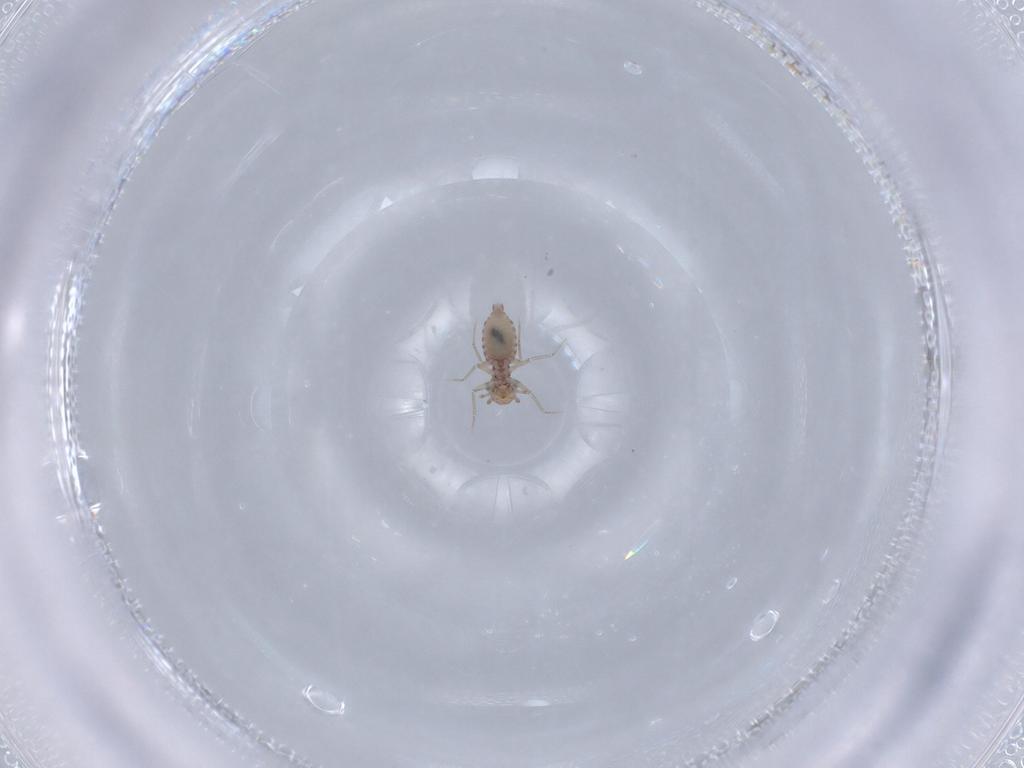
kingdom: Animalia
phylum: Arthropoda
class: Insecta
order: Psocodea
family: Lepidopsocidae
